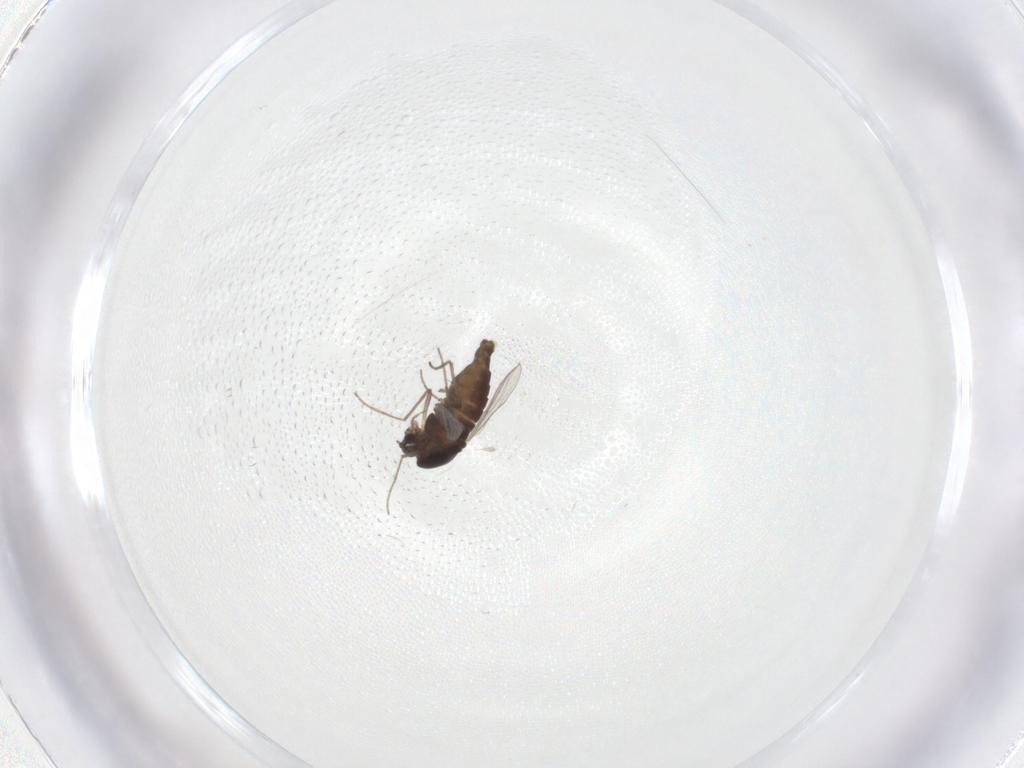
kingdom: Animalia
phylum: Arthropoda
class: Insecta
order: Diptera
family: Chironomidae
